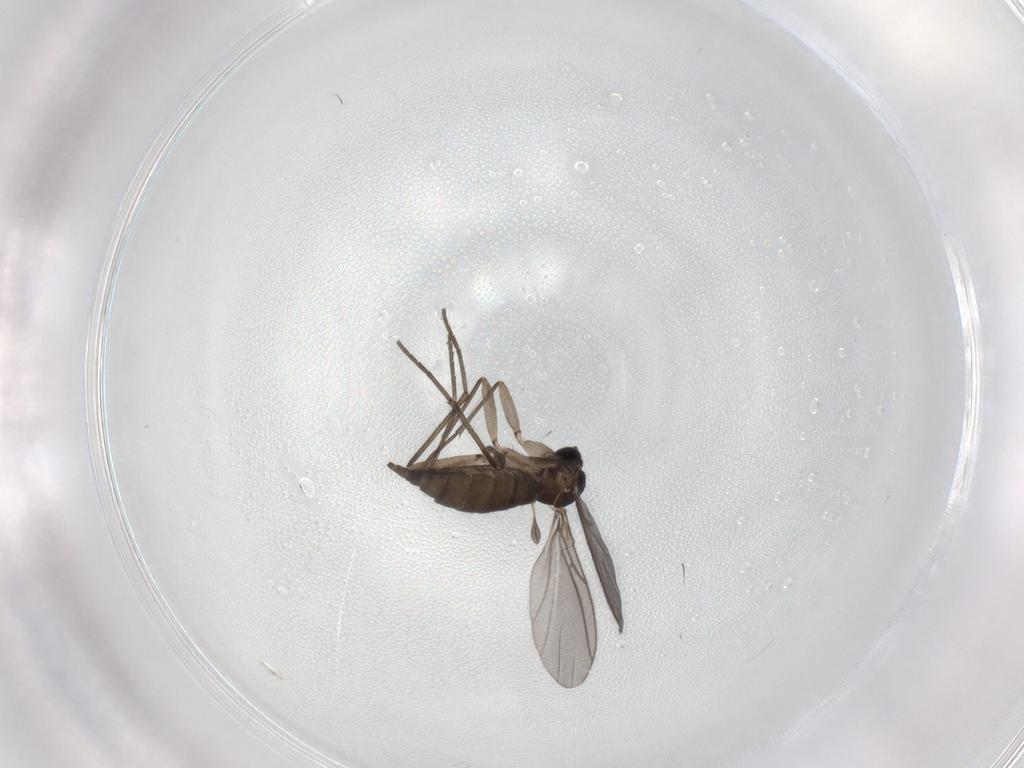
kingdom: Animalia
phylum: Arthropoda
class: Insecta
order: Diptera
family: Sciaridae
